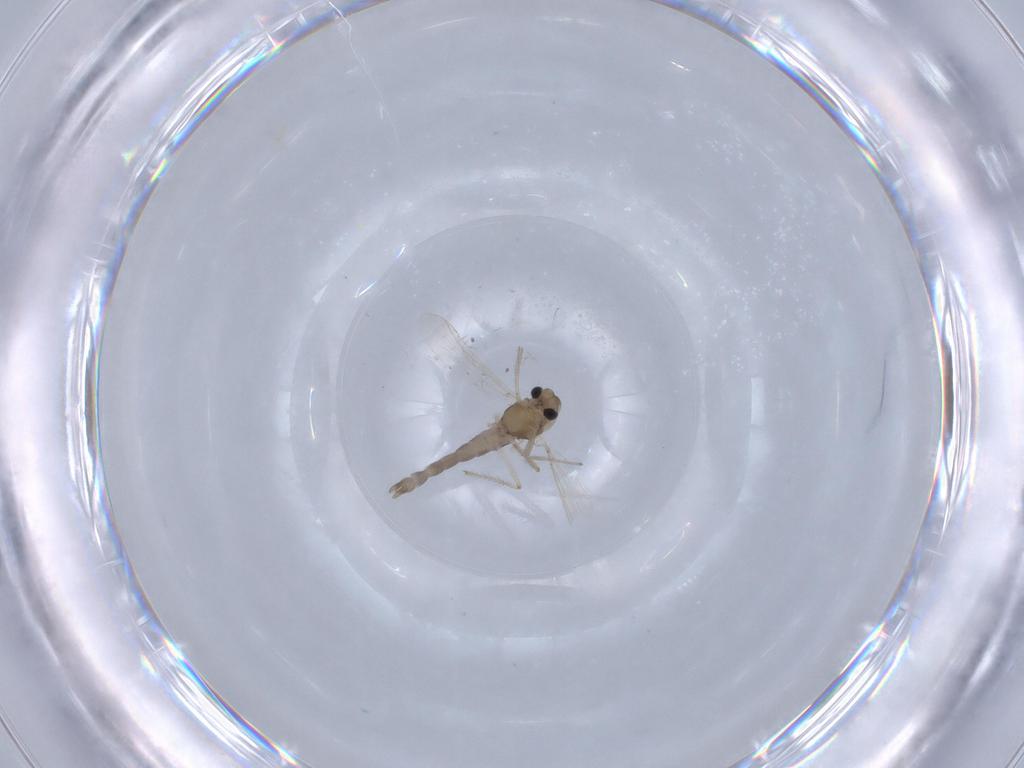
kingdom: Animalia
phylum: Arthropoda
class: Insecta
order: Diptera
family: Chironomidae
